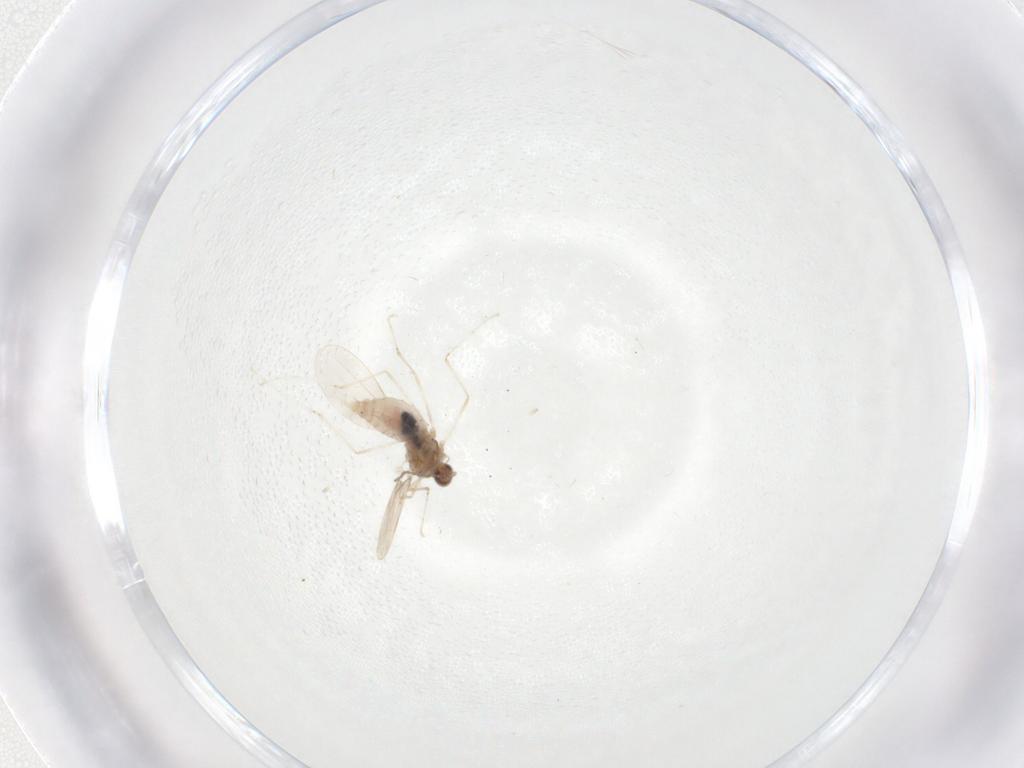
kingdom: Animalia
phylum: Arthropoda
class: Insecta
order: Diptera
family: Cecidomyiidae
